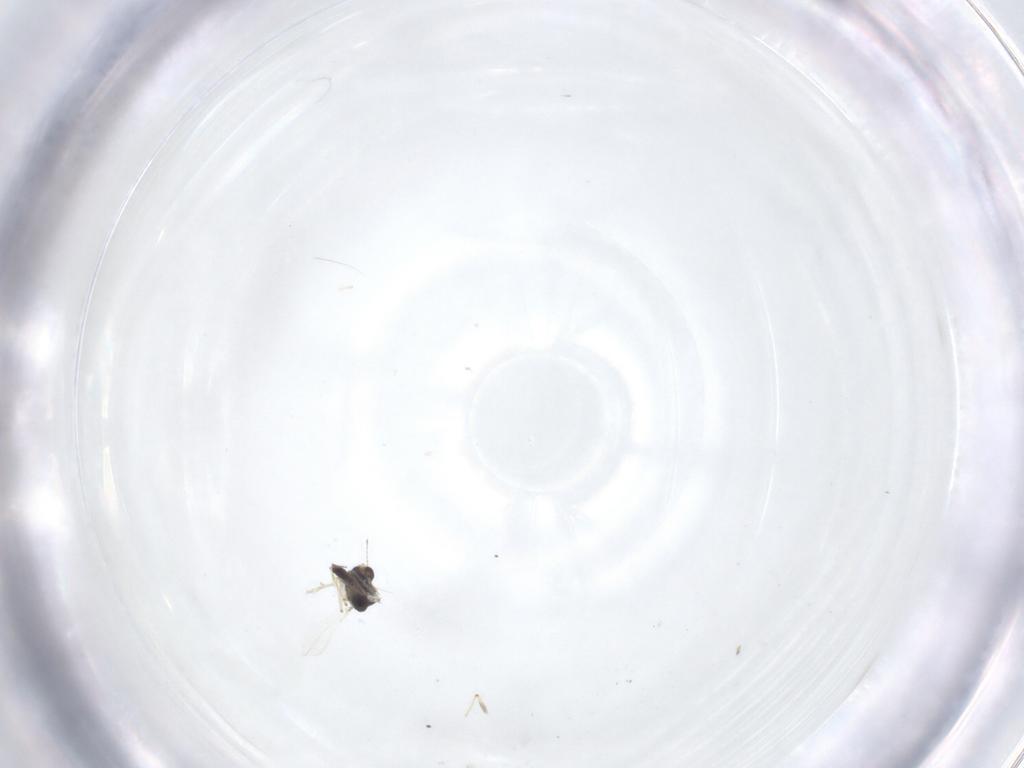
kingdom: Animalia
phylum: Arthropoda
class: Insecta
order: Diptera
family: Chironomidae
